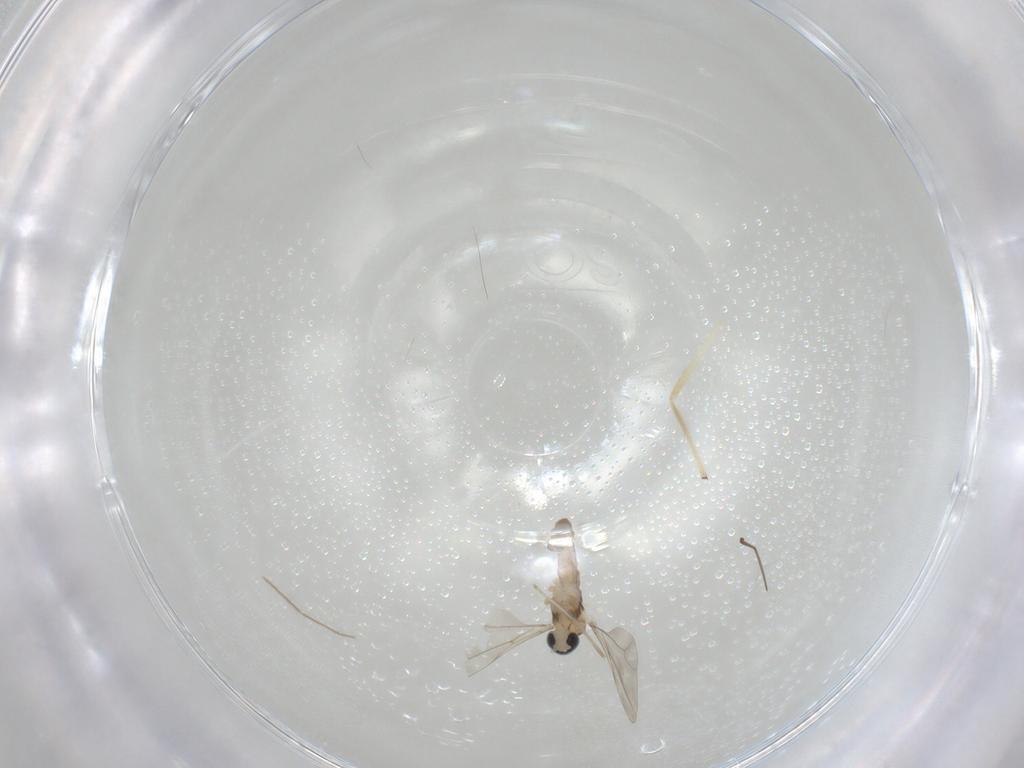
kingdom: Animalia
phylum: Arthropoda
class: Insecta
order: Diptera
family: Cecidomyiidae
